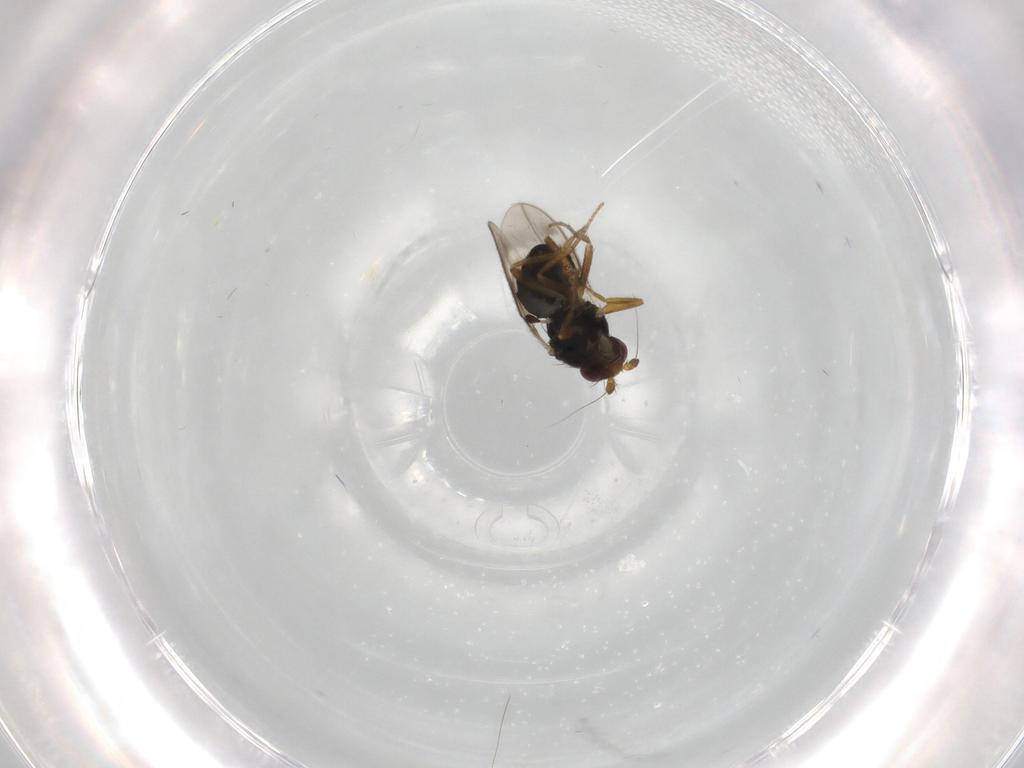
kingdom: Animalia
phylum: Arthropoda
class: Insecta
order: Diptera
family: Sphaeroceridae
